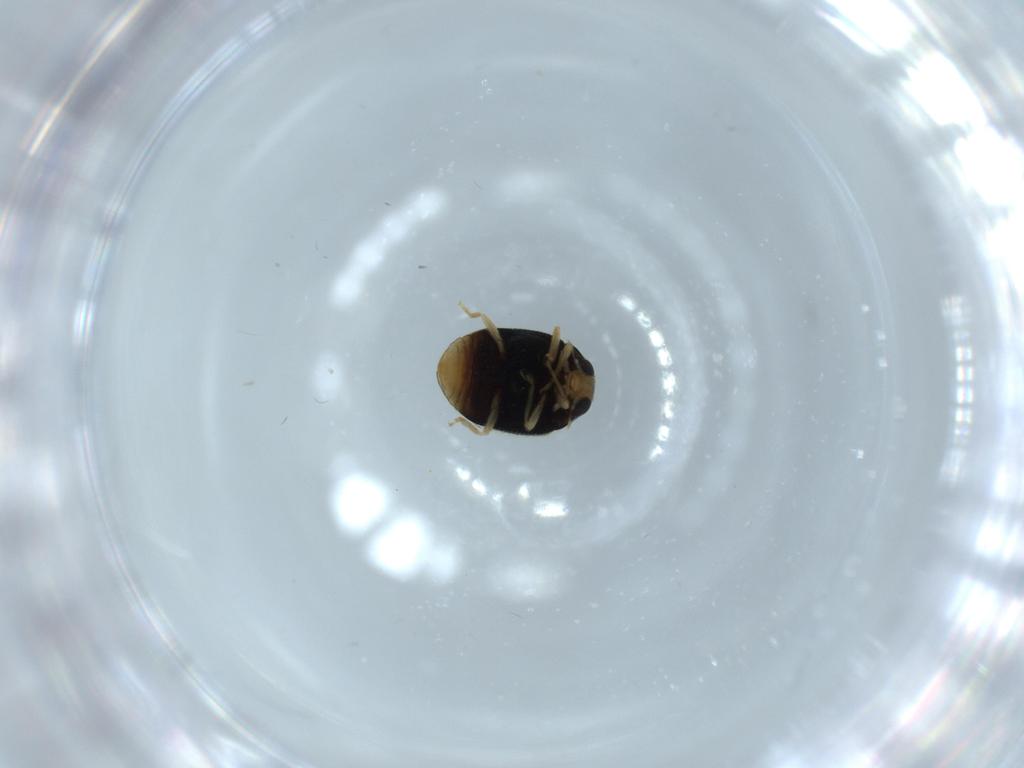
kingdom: Animalia
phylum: Arthropoda
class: Insecta
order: Coleoptera
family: Coccinellidae
